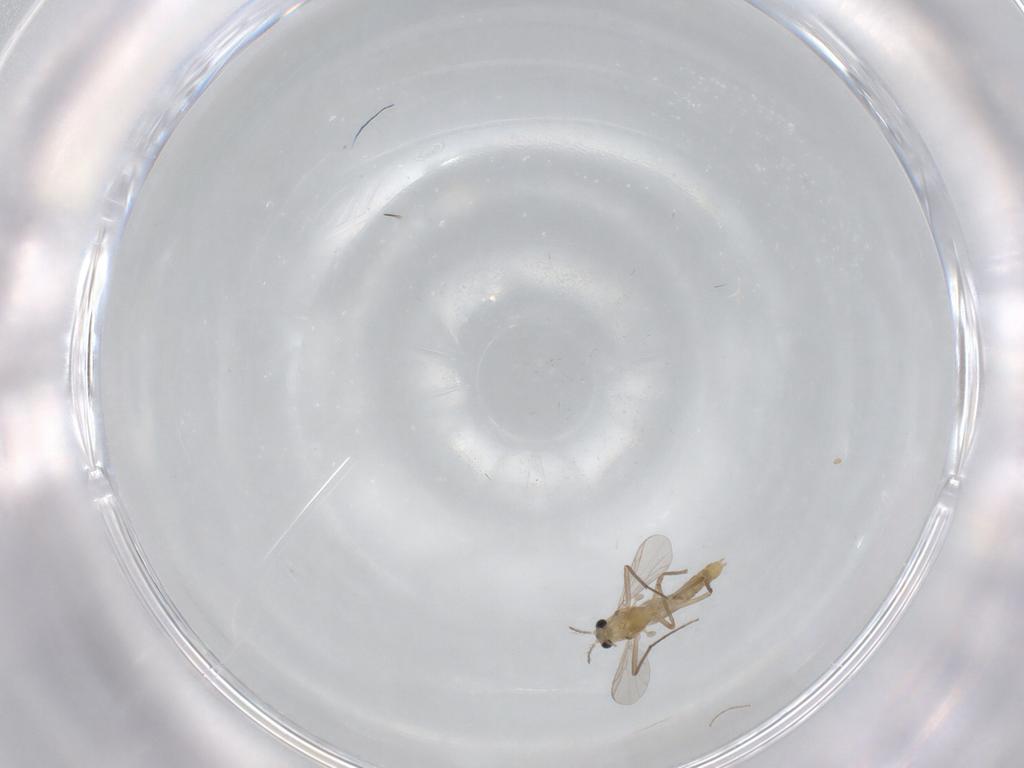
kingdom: Animalia
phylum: Arthropoda
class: Insecta
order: Diptera
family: Chironomidae
